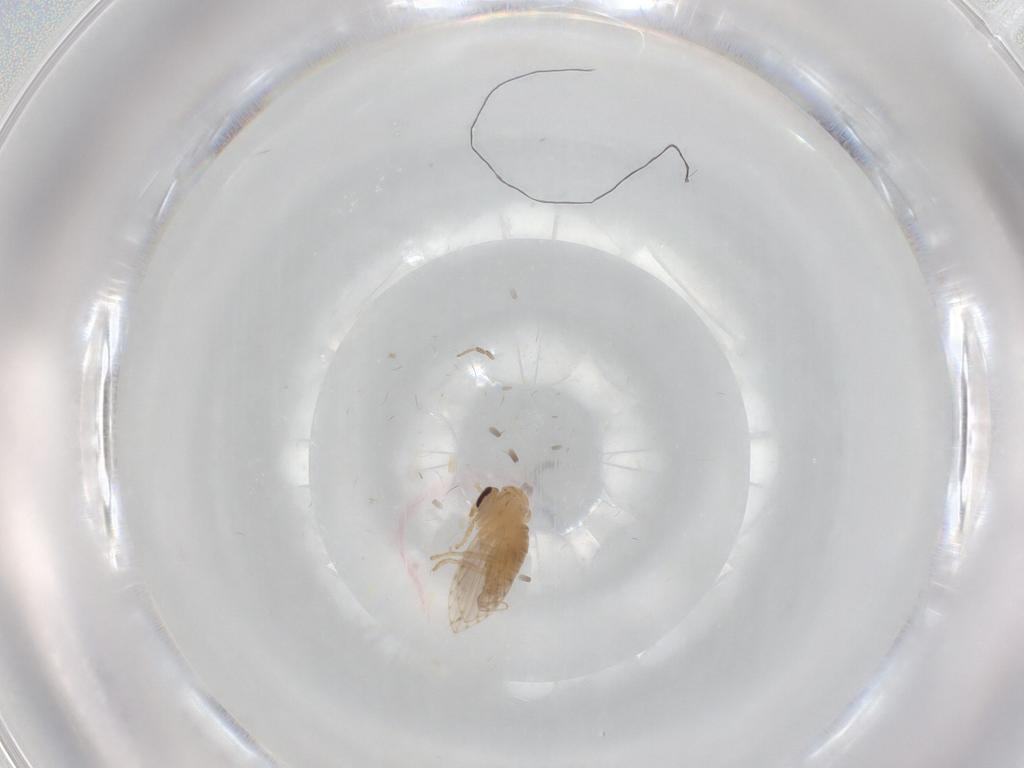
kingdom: Animalia
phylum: Arthropoda
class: Insecta
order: Diptera
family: Psychodidae
